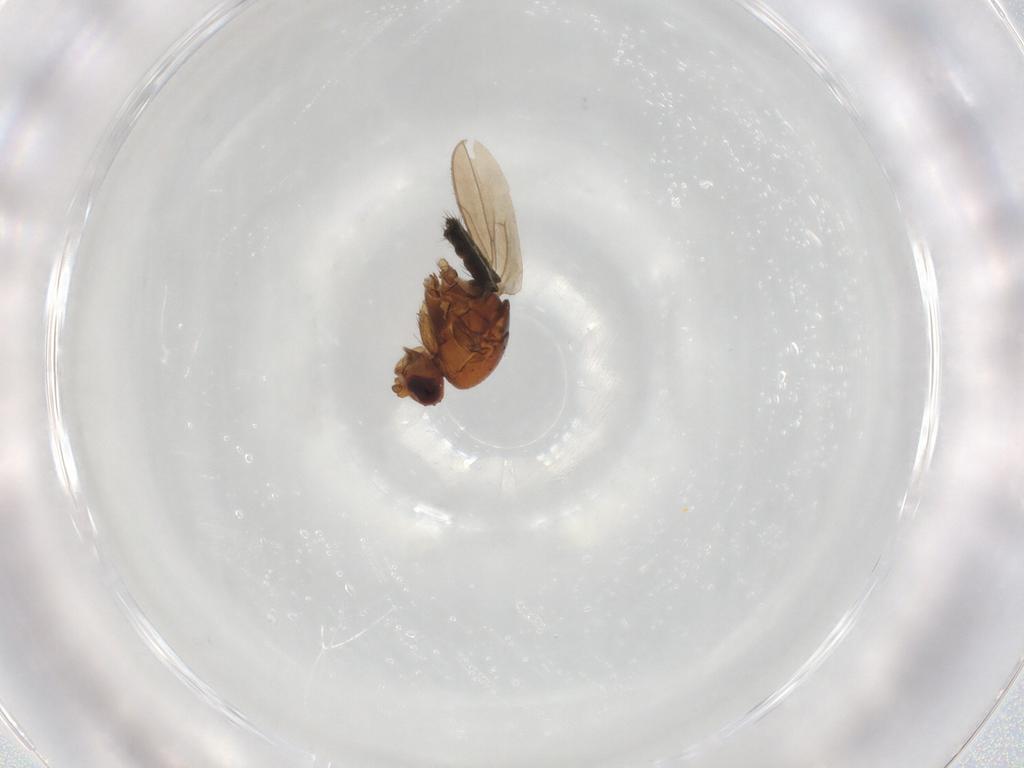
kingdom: Animalia
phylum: Arthropoda
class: Insecta
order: Diptera
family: Sphaeroceridae
